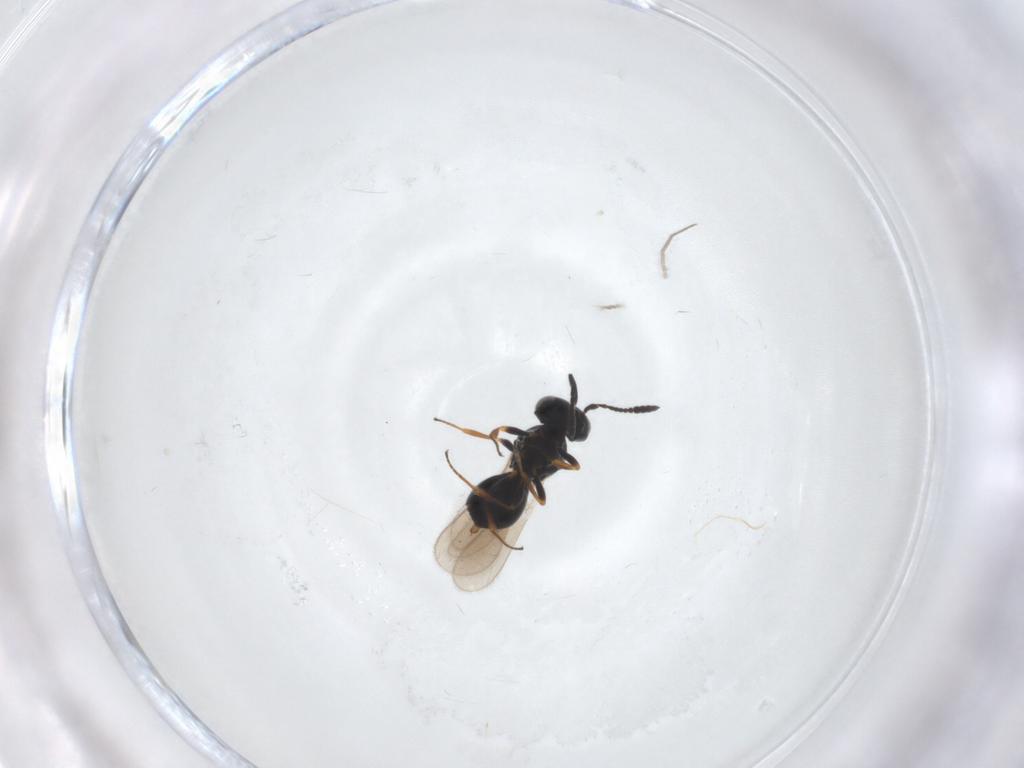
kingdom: Animalia
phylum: Arthropoda
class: Insecta
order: Hymenoptera
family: Scelionidae
